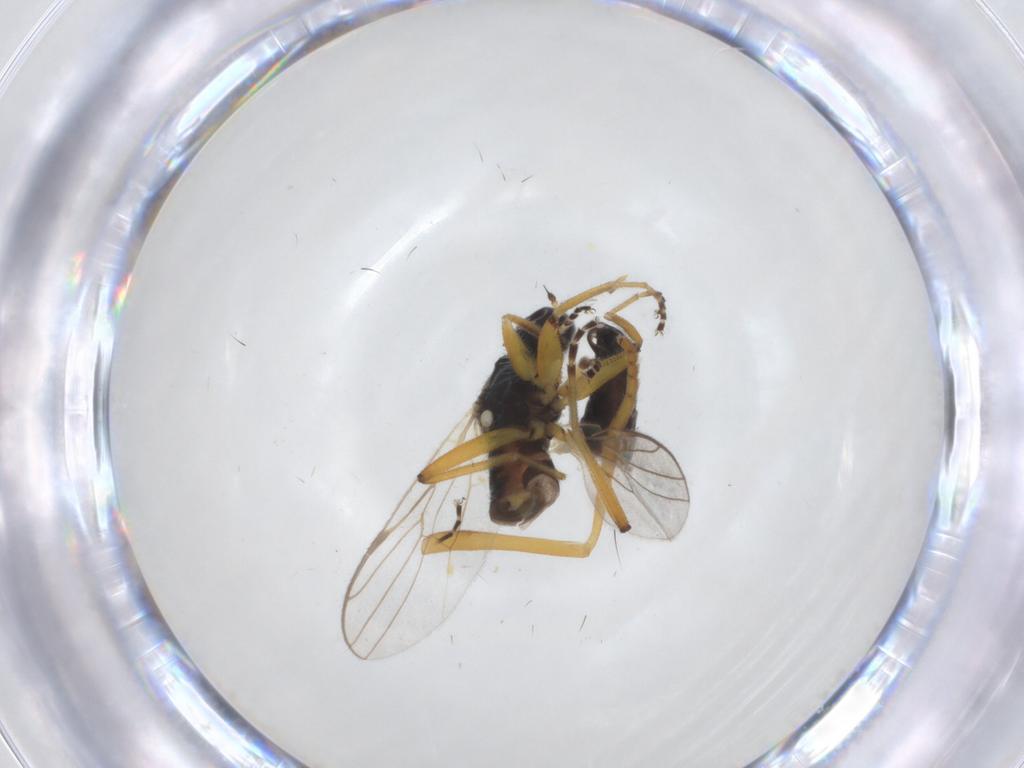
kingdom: Animalia
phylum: Arthropoda
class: Insecta
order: Diptera
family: Hybotidae
